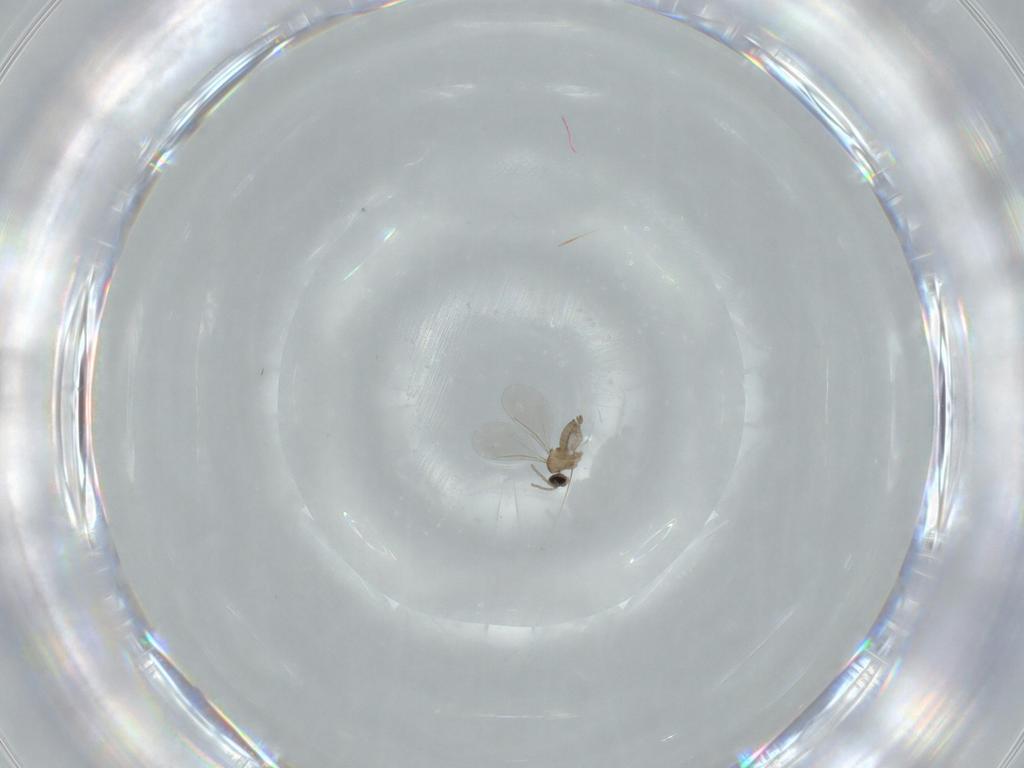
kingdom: Animalia
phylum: Arthropoda
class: Insecta
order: Diptera
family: Cecidomyiidae
